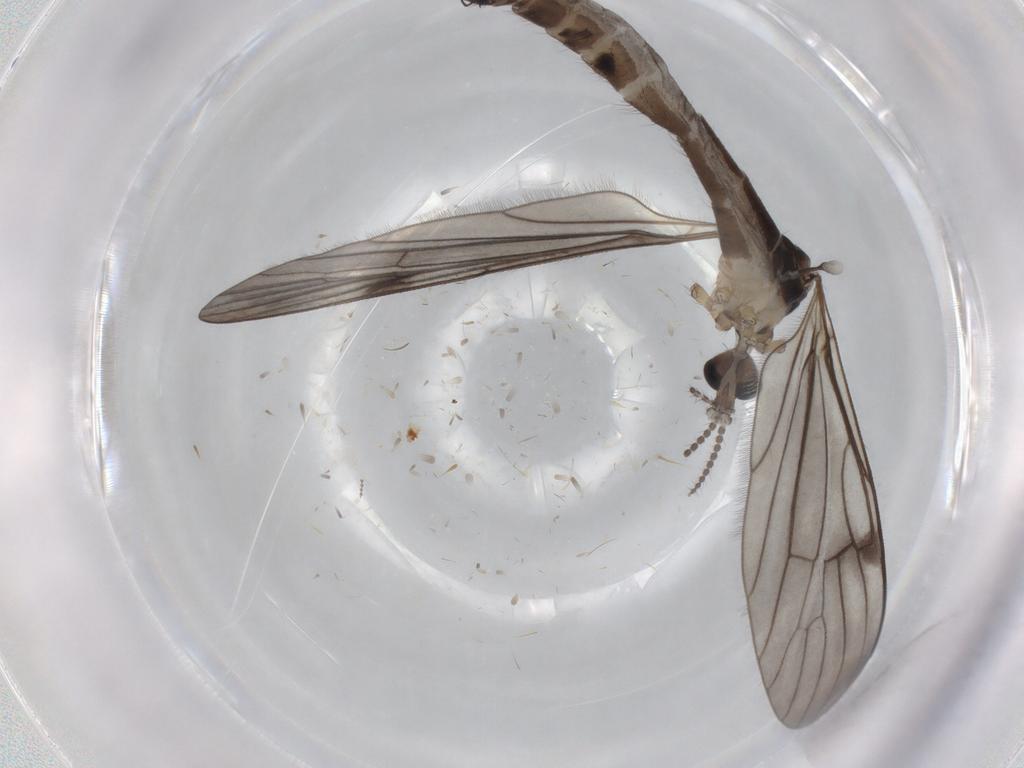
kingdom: Animalia
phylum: Arthropoda
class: Insecta
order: Diptera
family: Limoniidae
